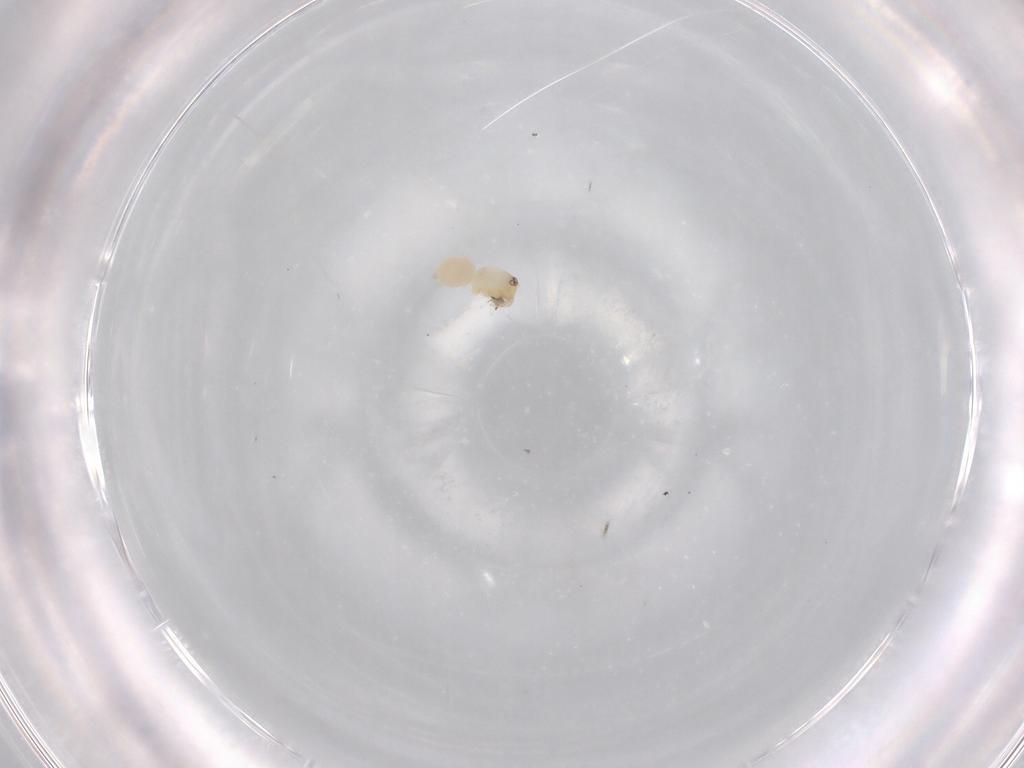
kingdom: Animalia
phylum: Arthropoda
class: Arachnida
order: Araneae
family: Oonopidae
